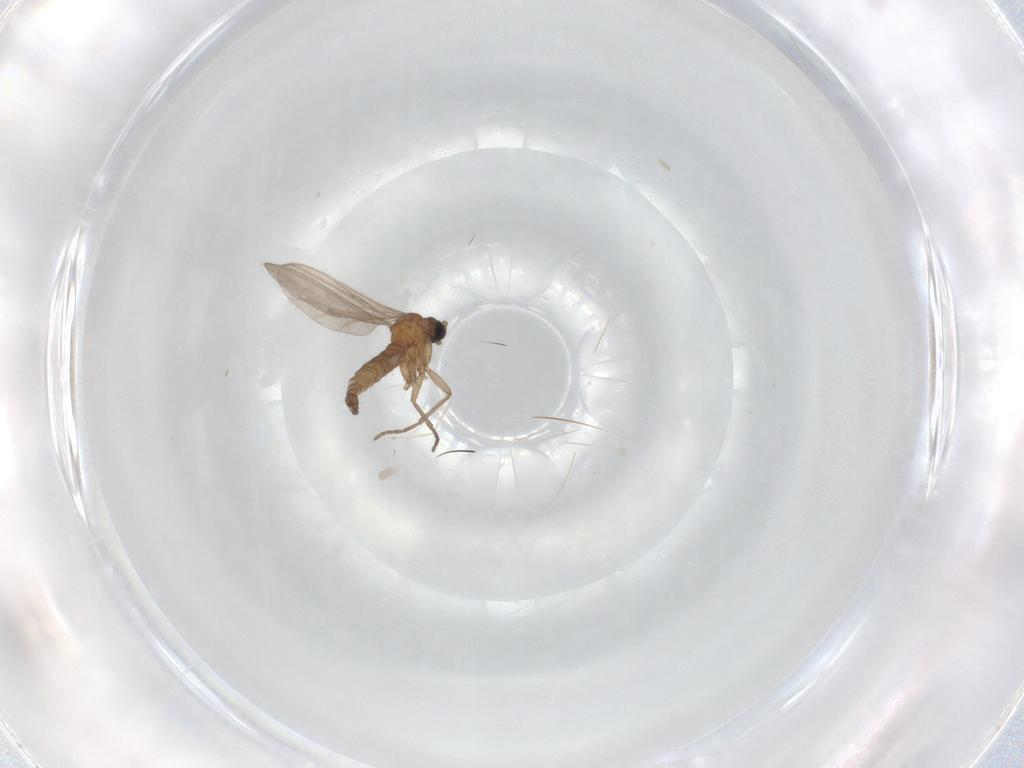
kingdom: Animalia
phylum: Arthropoda
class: Insecta
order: Diptera
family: Sciaridae
